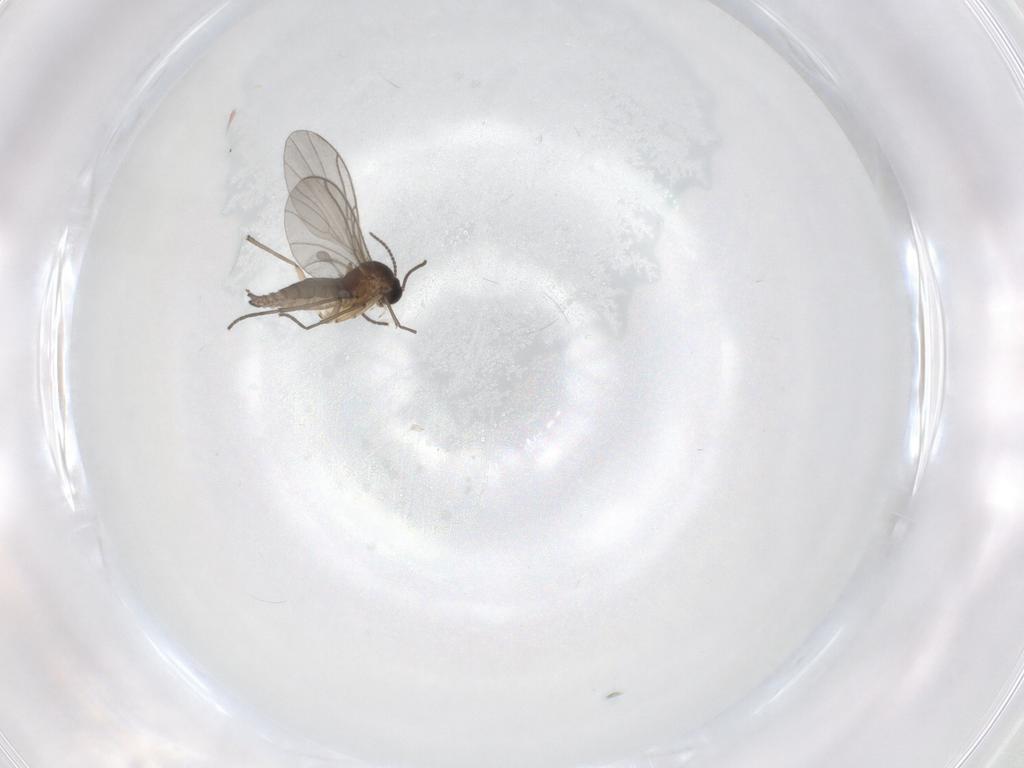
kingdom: Animalia
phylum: Arthropoda
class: Insecta
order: Diptera
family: Sciaridae
